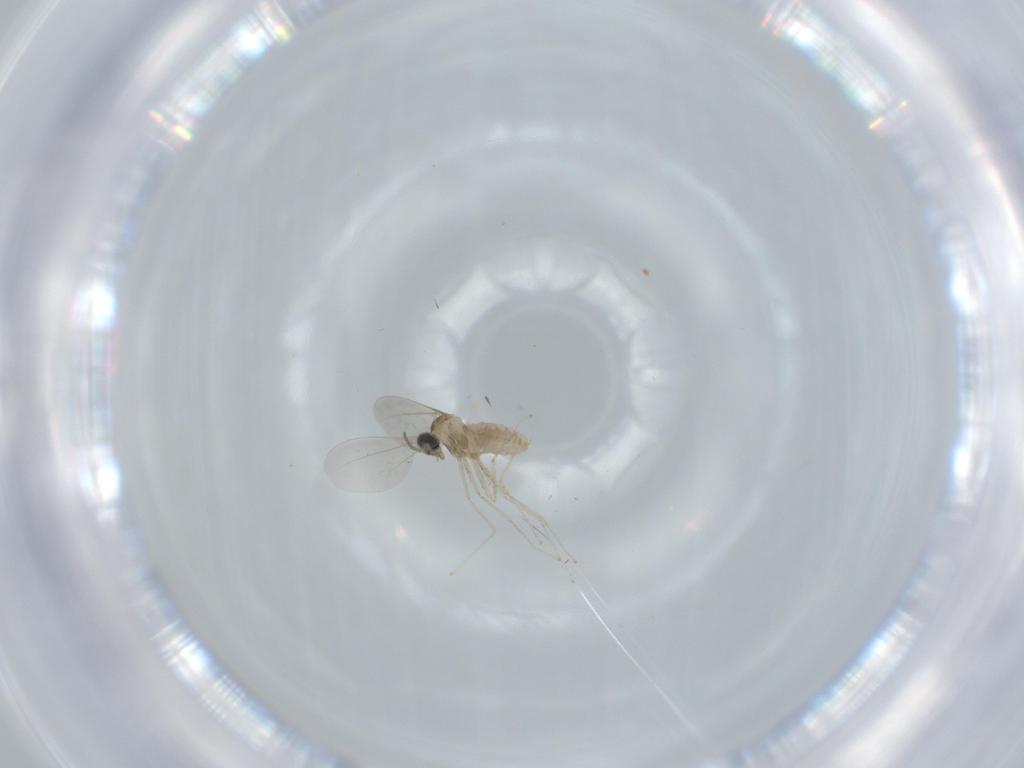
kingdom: Animalia
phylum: Arthropoda
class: Insecta
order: Diptera
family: Cecidomyiidae
